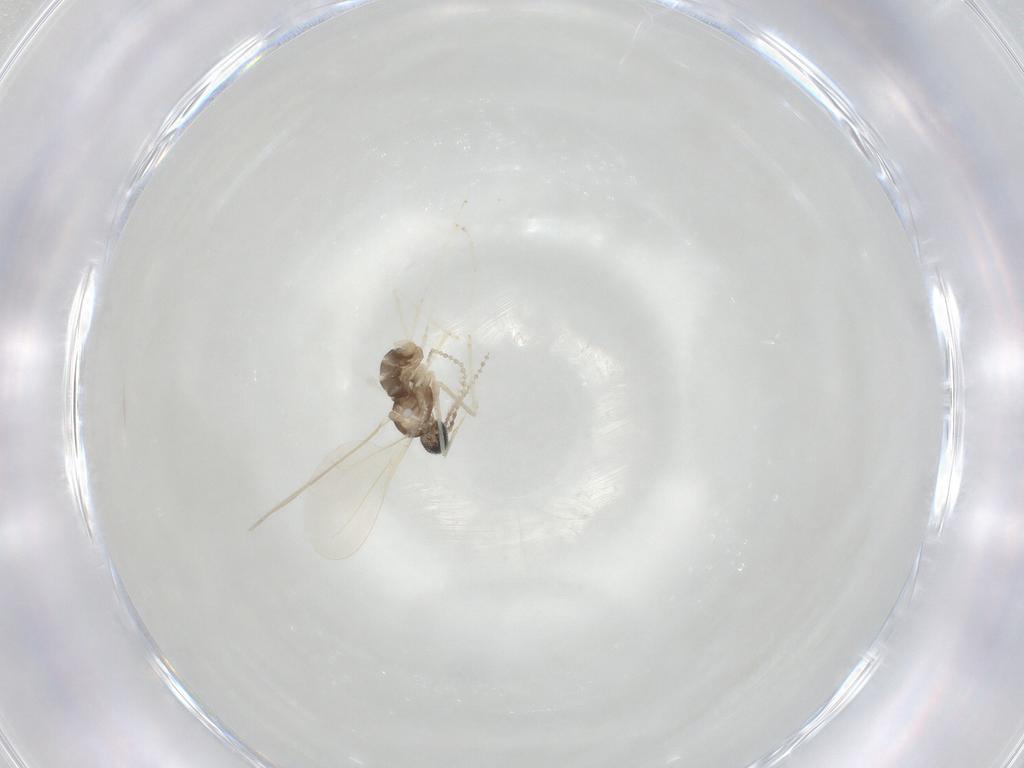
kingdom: Animalia
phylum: Arthropoda
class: Insecta
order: Diptera
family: Cecidomyiidae
